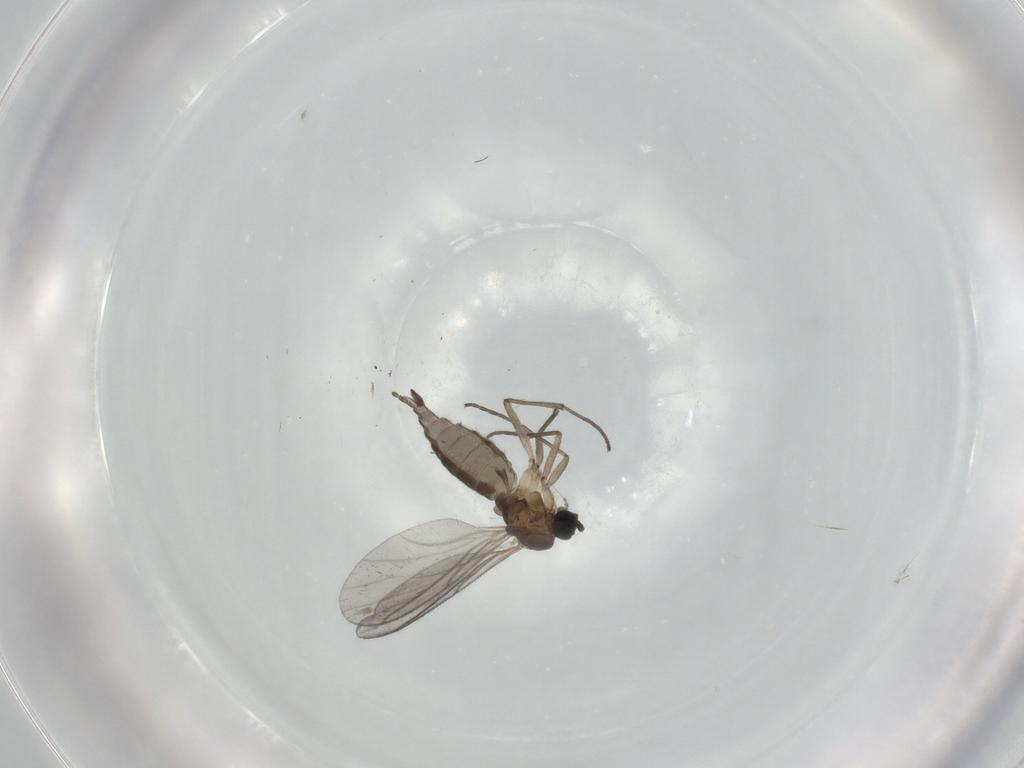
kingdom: Animalia
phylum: Arthropoda
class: Insecta
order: Diptera
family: Sciaridae
